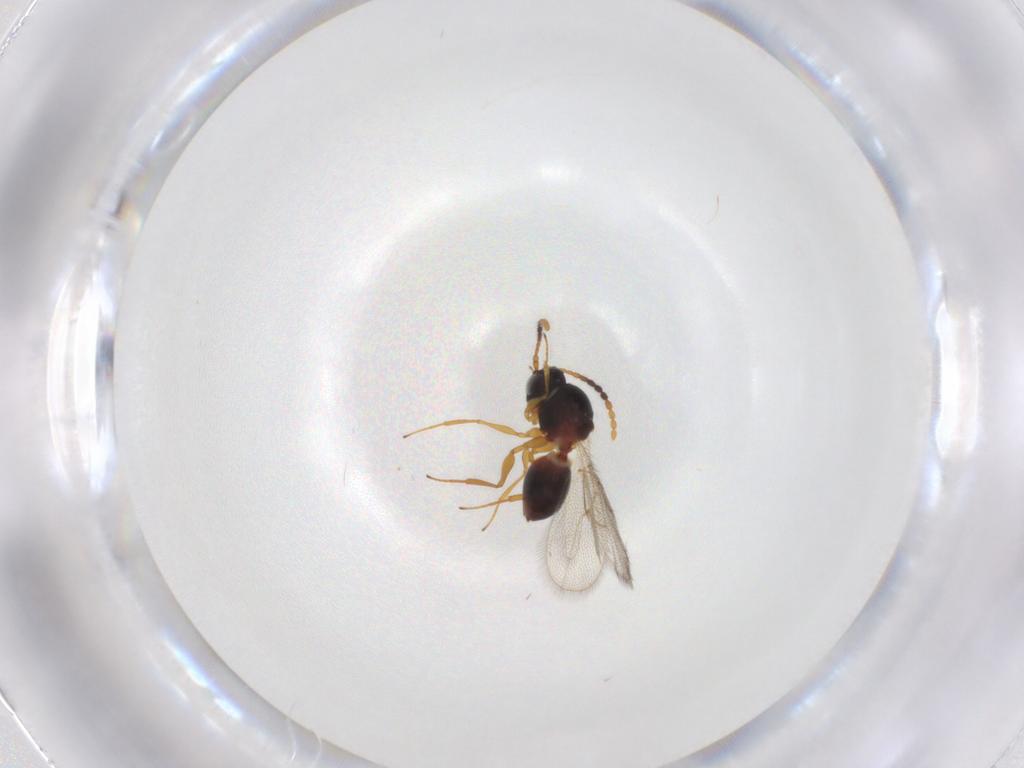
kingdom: Animalia
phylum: Arthropoda
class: Insecta
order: Hymenoptera
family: Figitidae
